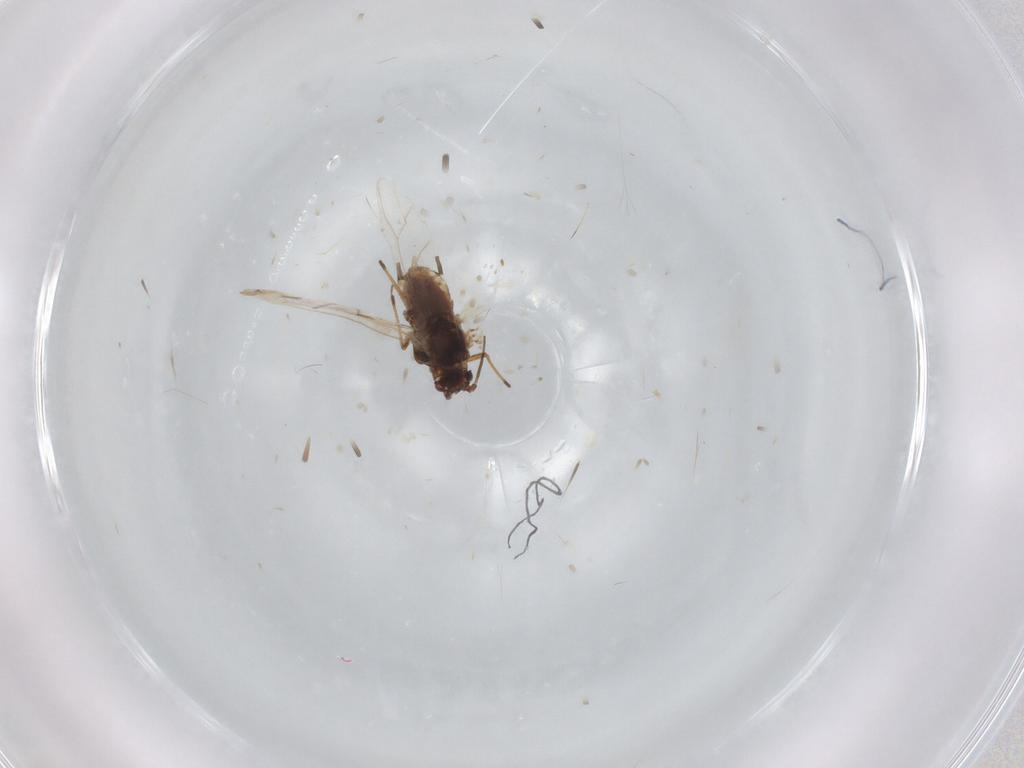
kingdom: Animalia
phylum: Arthropoda
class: Insecta
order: Hemiptera
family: Aphididae
